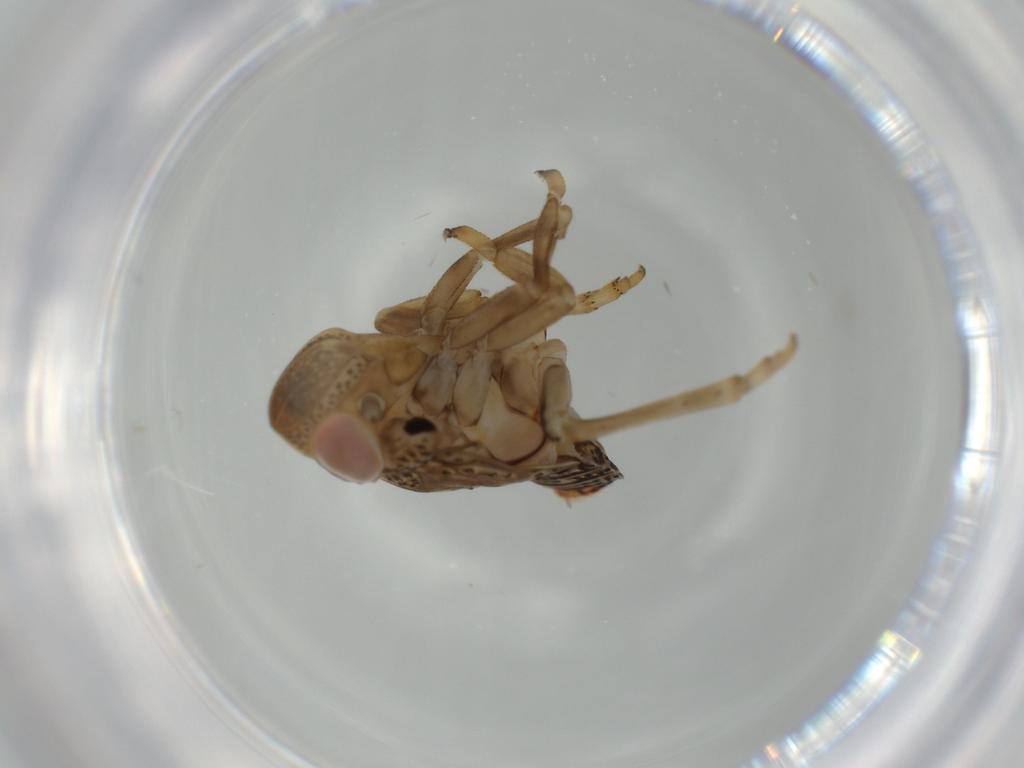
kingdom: Animalia
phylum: Arthropoda
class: Insecta
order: Hemiptera
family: Issidae
